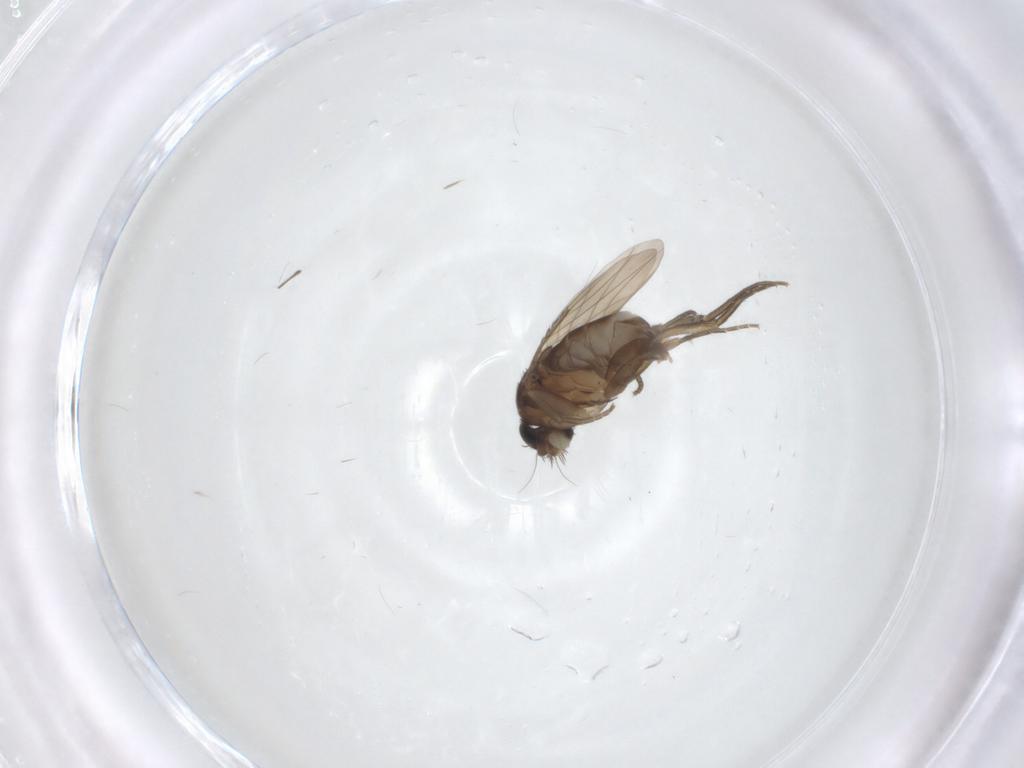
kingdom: Animalia
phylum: Arthropoda
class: Insecta
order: Diptera
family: Phoridae
